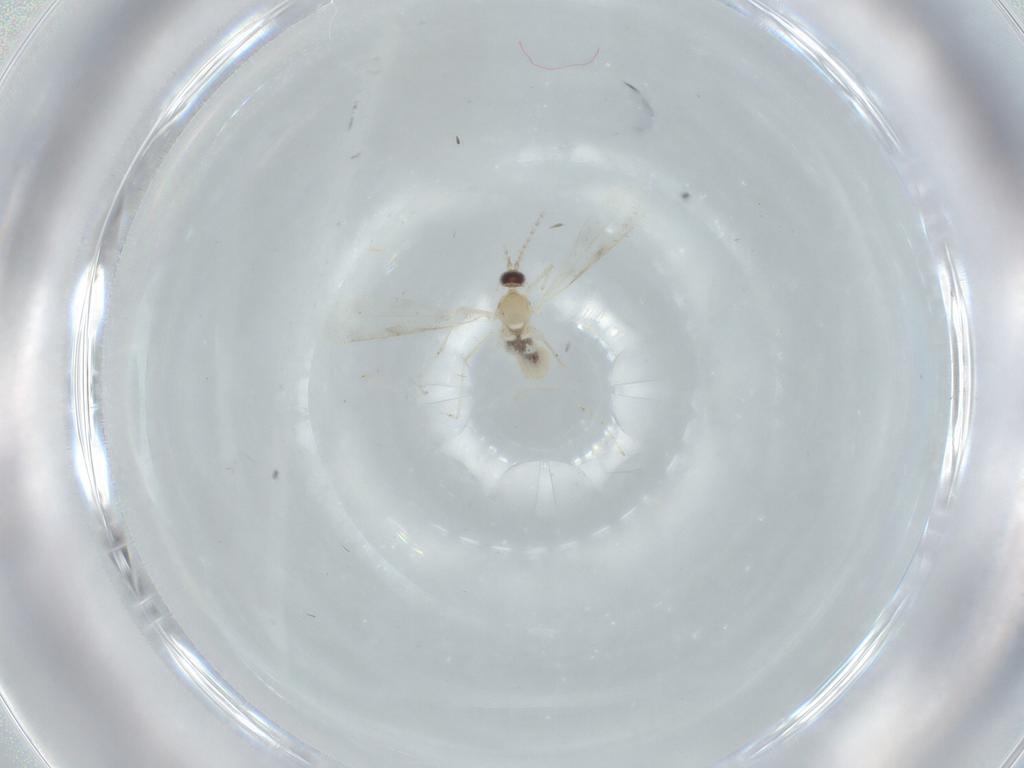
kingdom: Animalia
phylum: Arthropoda
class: Insecta
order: Diptera
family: Cecidomyiidae
